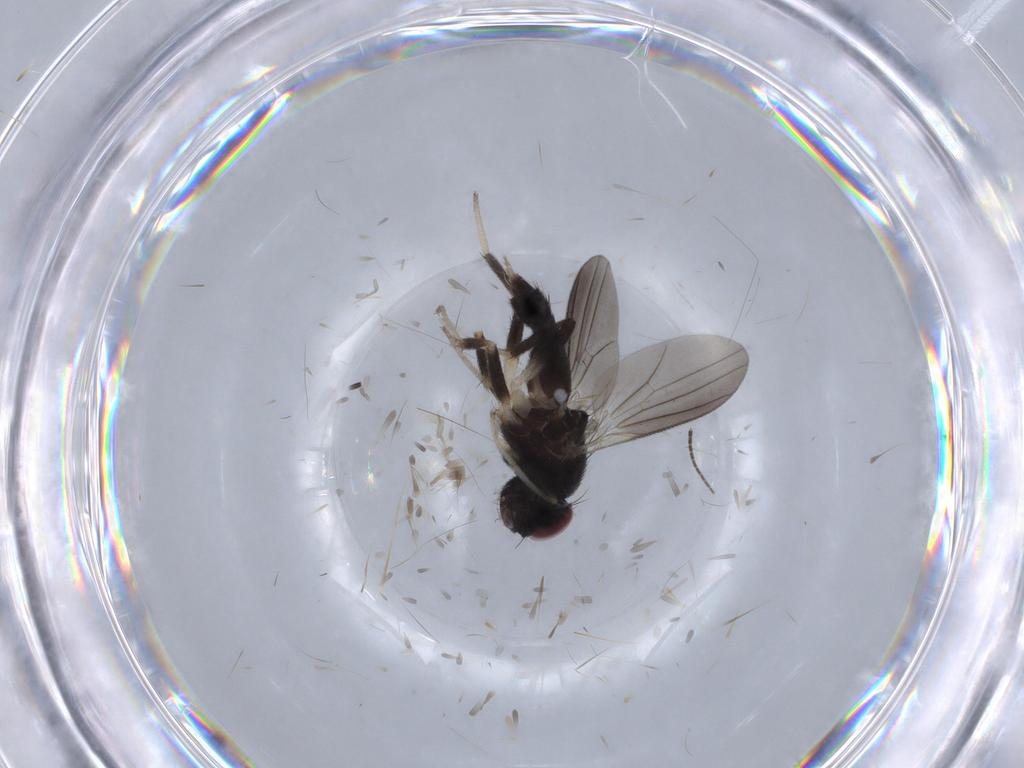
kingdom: Animalia
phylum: Arthropoda
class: Insecta
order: Diptera
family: Clusiidae
